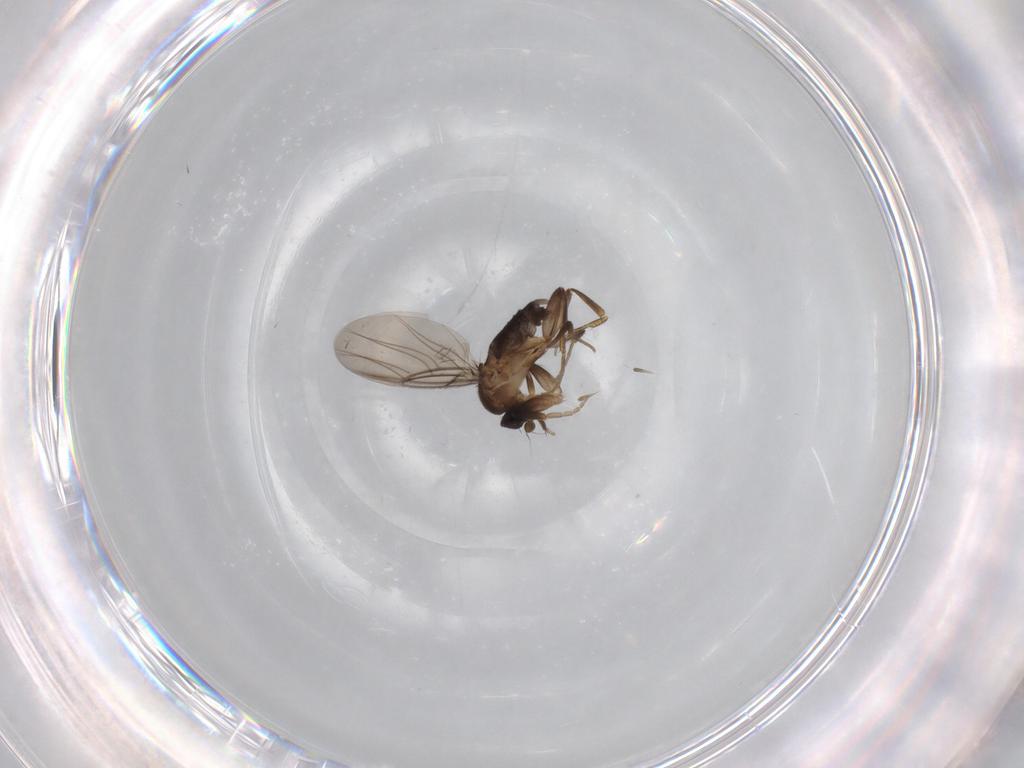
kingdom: Animalia
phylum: Arthropoda
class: Insecta
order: Diptera
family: Phoridae
